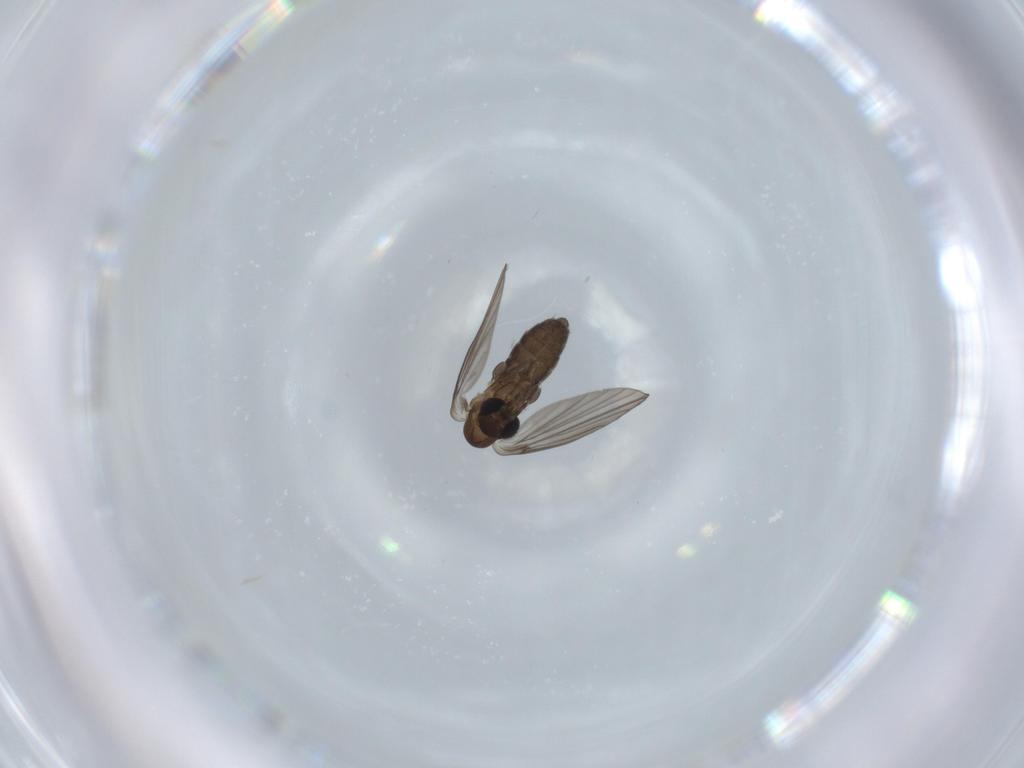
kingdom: Animalia
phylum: Arthropoda
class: Insecta
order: Diptera
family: Psychodidae
